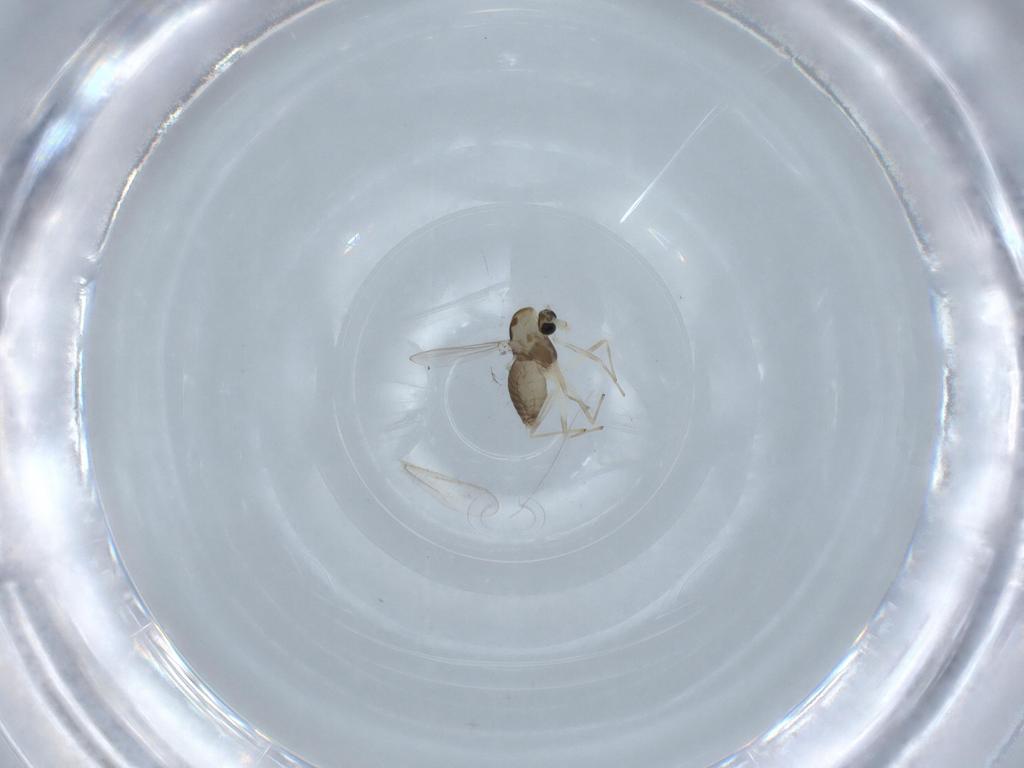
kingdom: Animalia
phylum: Arthropoda
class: Insecta
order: Diptera
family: Chironomidae
